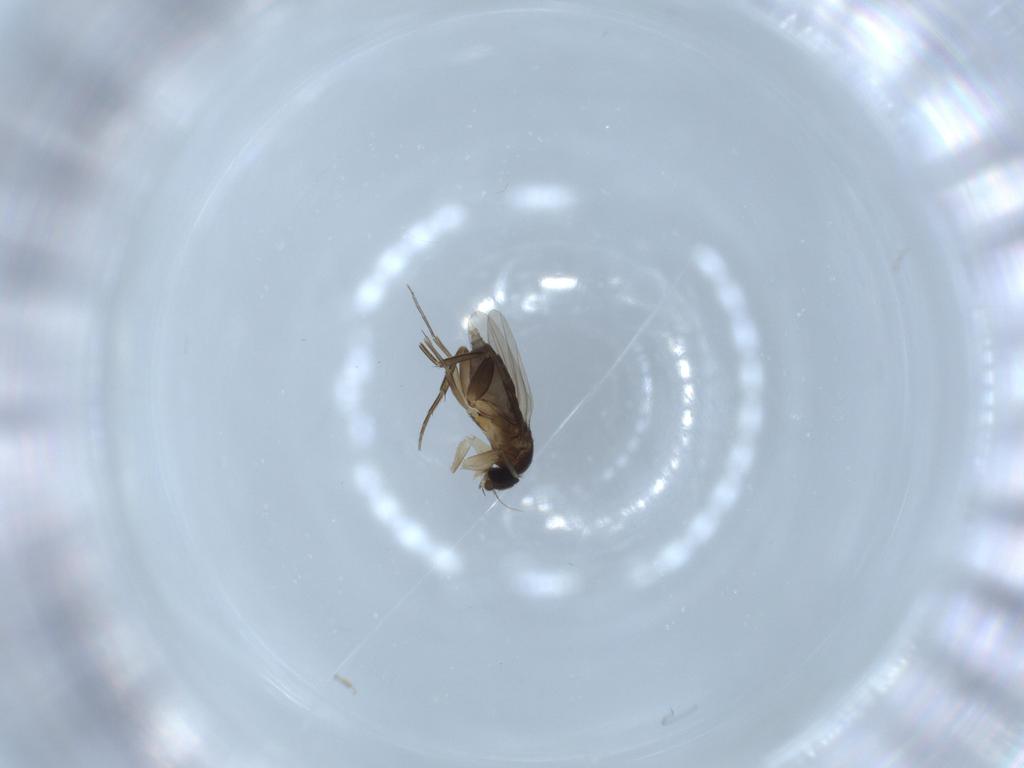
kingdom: Animalia
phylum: Arthropoda
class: Insecta
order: Diptera
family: Phoridae
